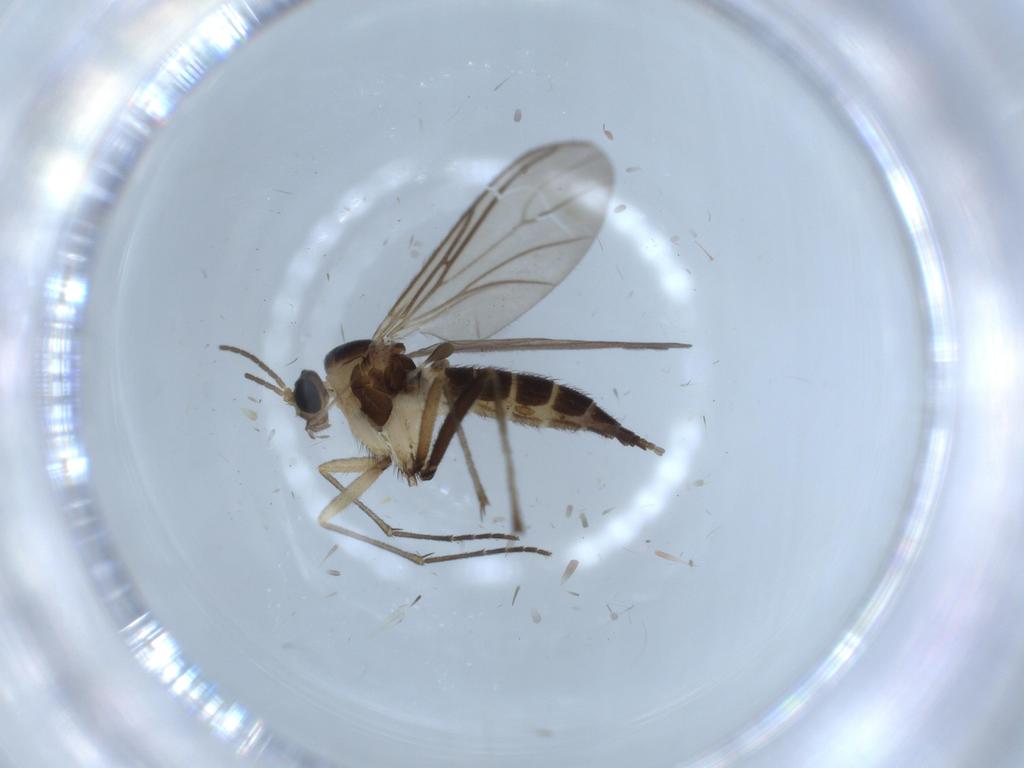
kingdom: Animalia
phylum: Arthropoda
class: Insecta
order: Diptera
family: Sciaridae
